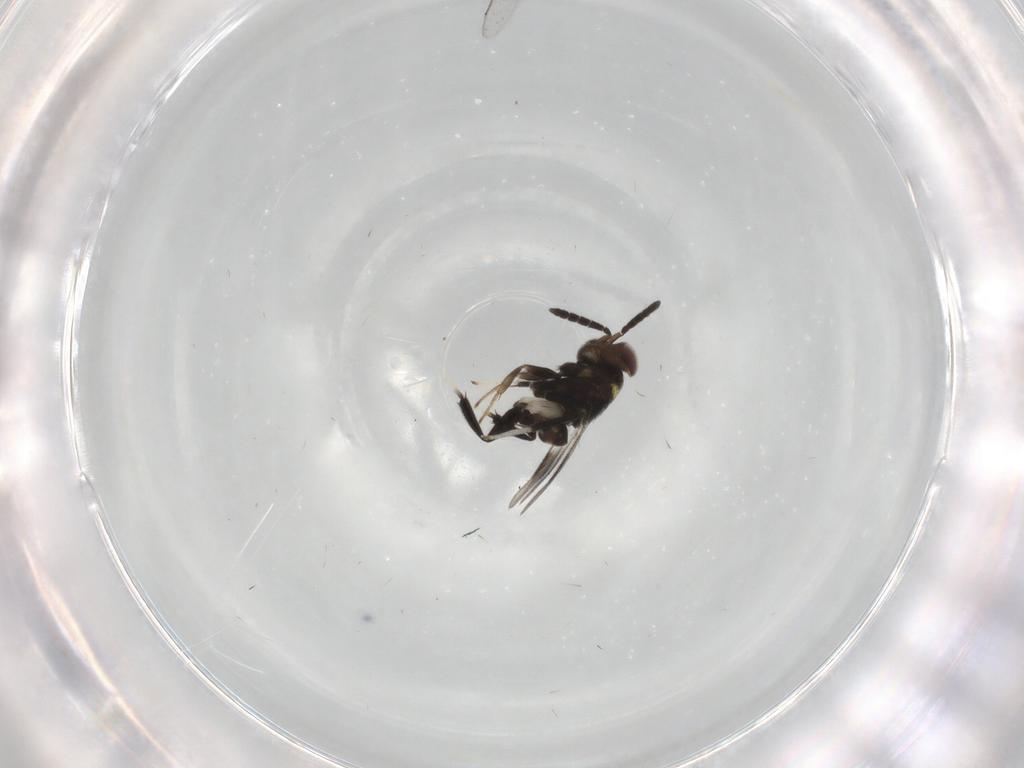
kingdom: Animalia
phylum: Arthropoda
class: Insecta
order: Hymenoptera
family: Aphelinidae
